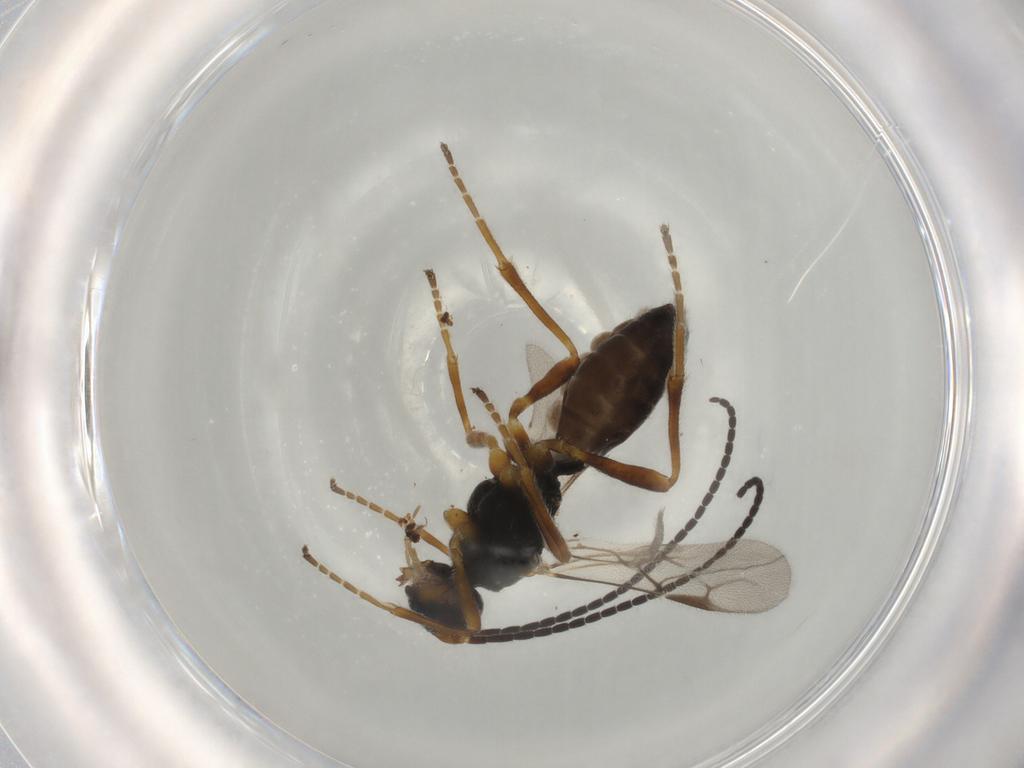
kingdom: Animalia
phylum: Arthropoda
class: Insecta
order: Hymenoptera
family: Braconidae
